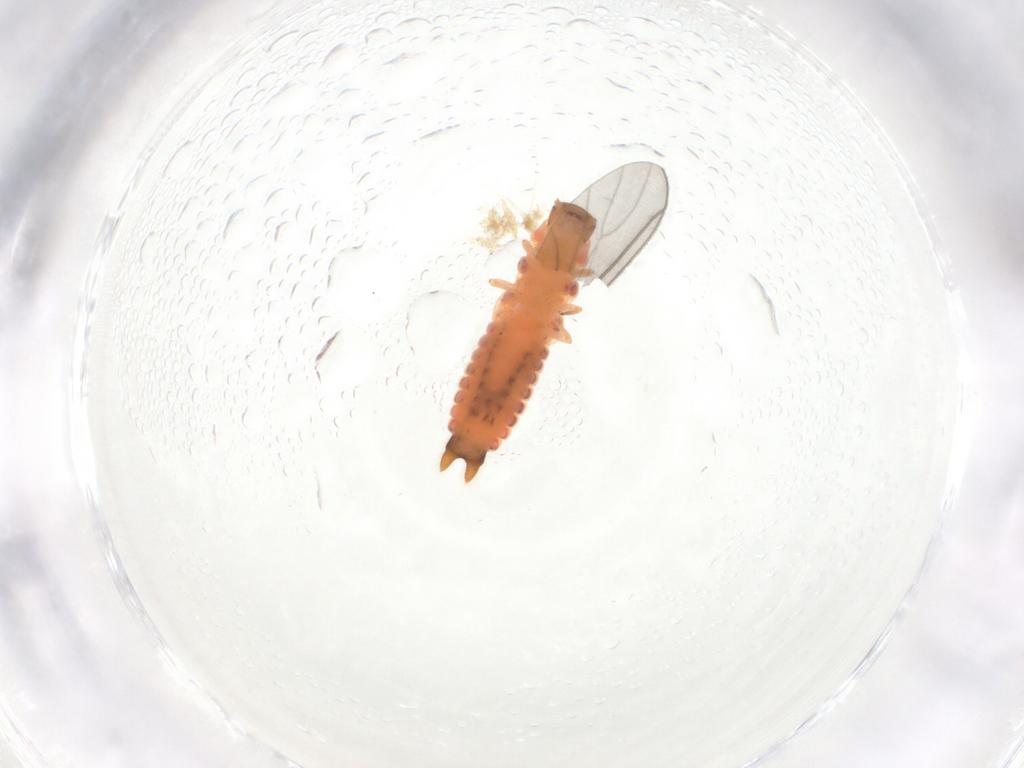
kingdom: Animalia
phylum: Arthropoda
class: Insecta
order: Coleoptera
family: Melyridae
